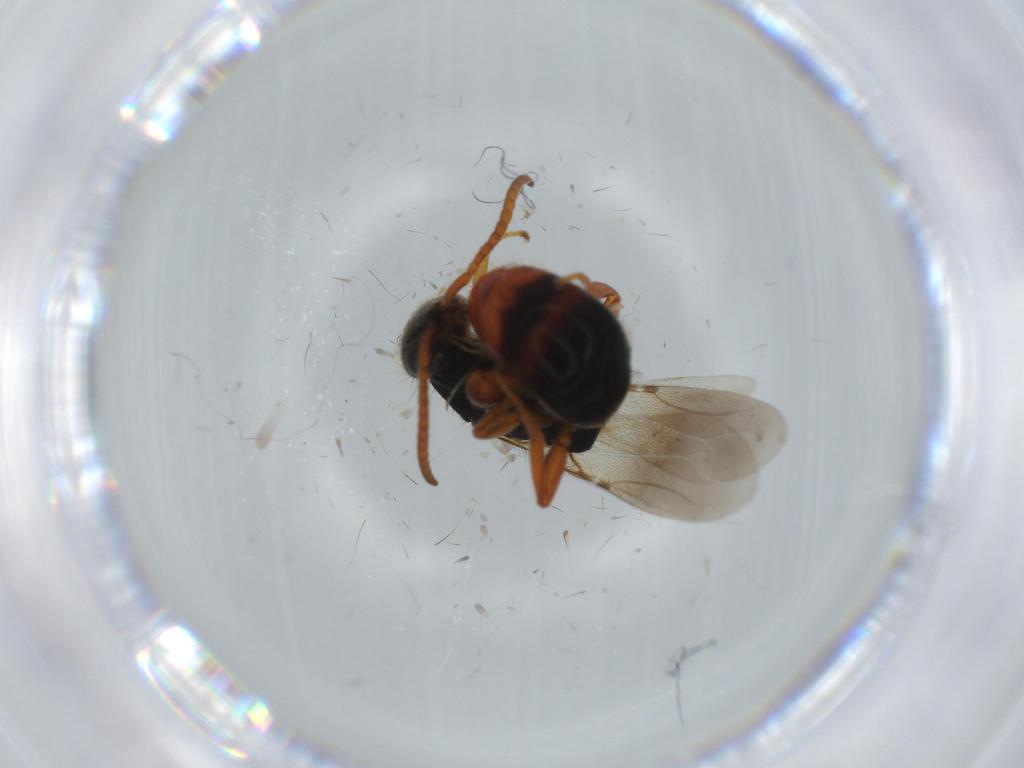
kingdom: Animalia
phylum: Arthropoda
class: Insecta
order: Hymenoptera
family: Bethylidae
